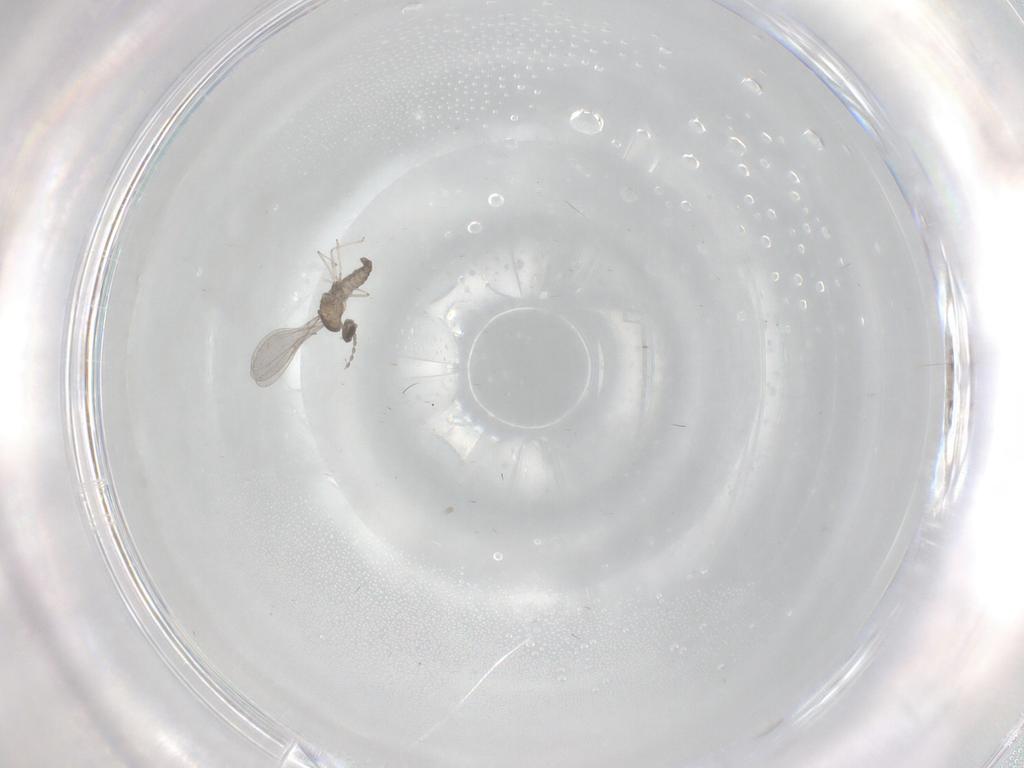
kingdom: Animalia
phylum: Arthropoda
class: Insecta
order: Diptera
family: Cecidomyiidae
